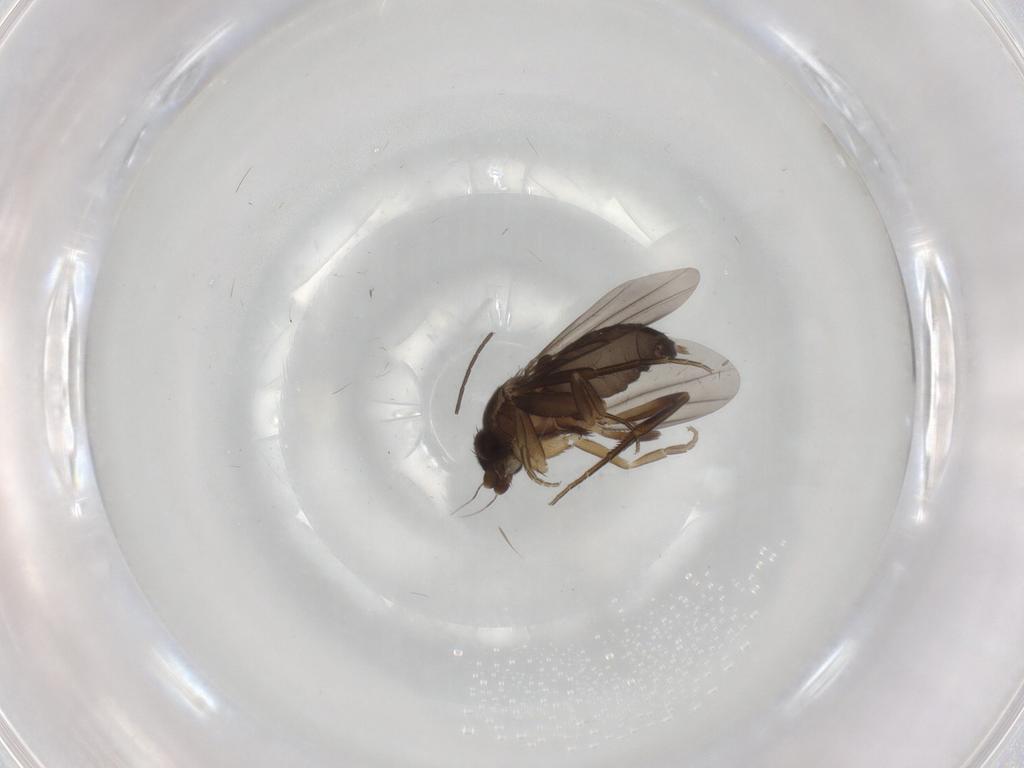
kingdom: Animalia
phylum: Arthropoda
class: Insecta
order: Diptera
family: Phoridae
